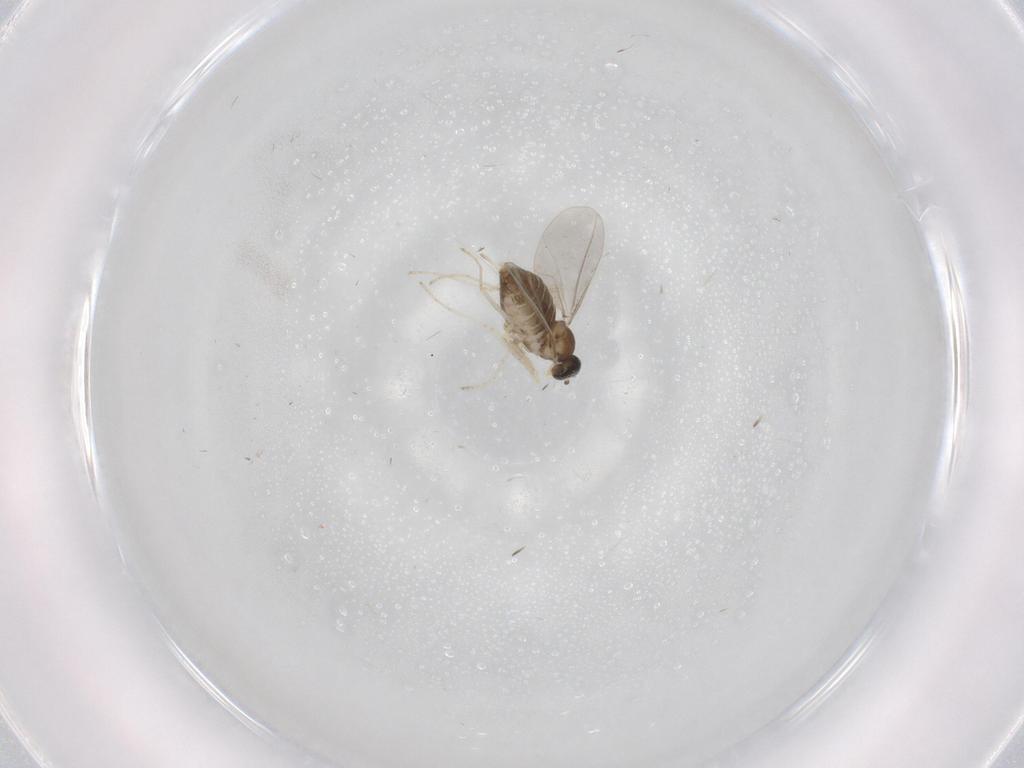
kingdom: Animalia
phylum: Arthropoda
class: Insecta
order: Diptera
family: Cecidomyiidae
